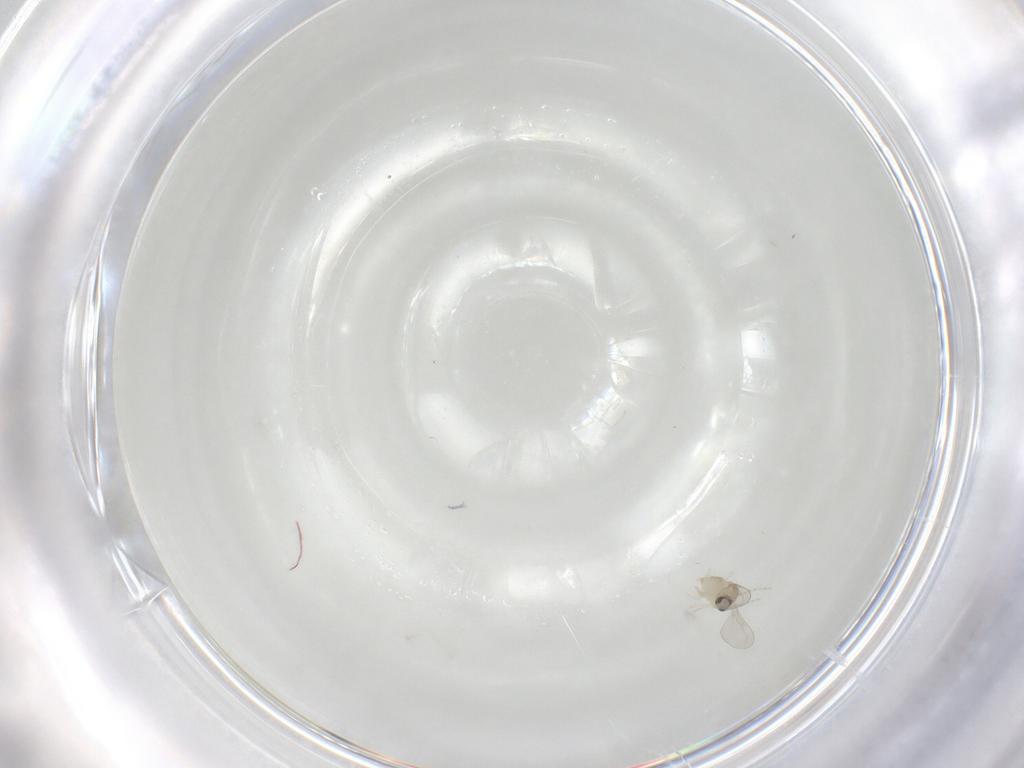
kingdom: Animalia
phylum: Arthropoda
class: Insecta
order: Diptera
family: Cecidomyiidae
